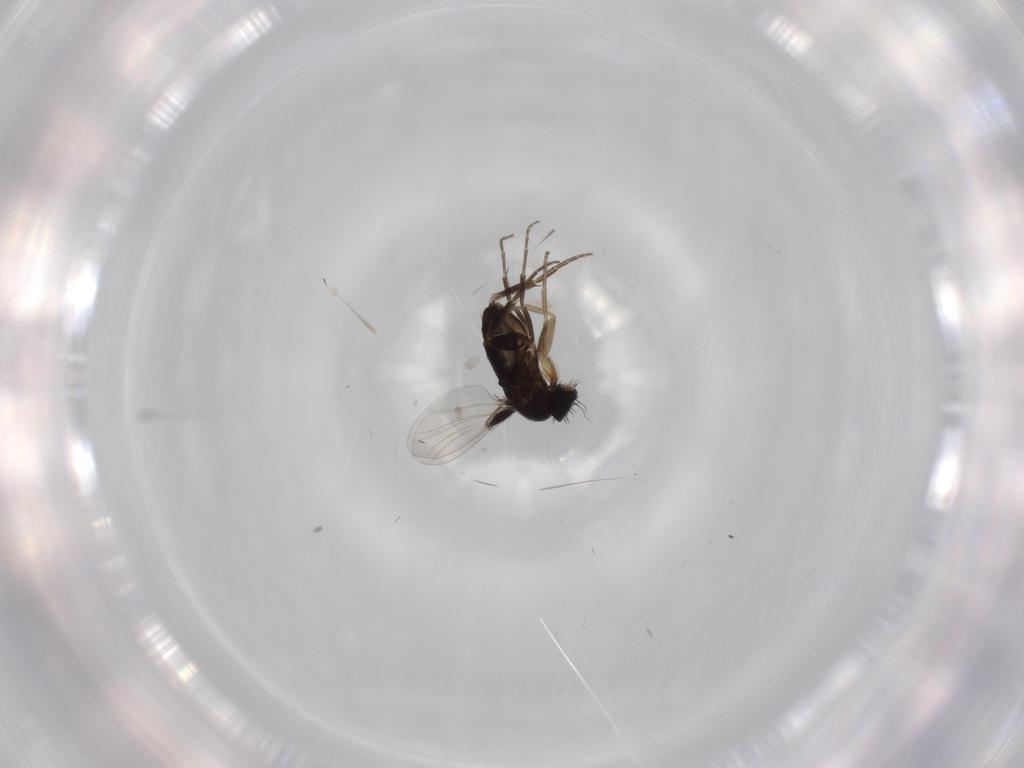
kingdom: Animalia
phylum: Arthropoda
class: Insecta
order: Diptera
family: Phoridae
